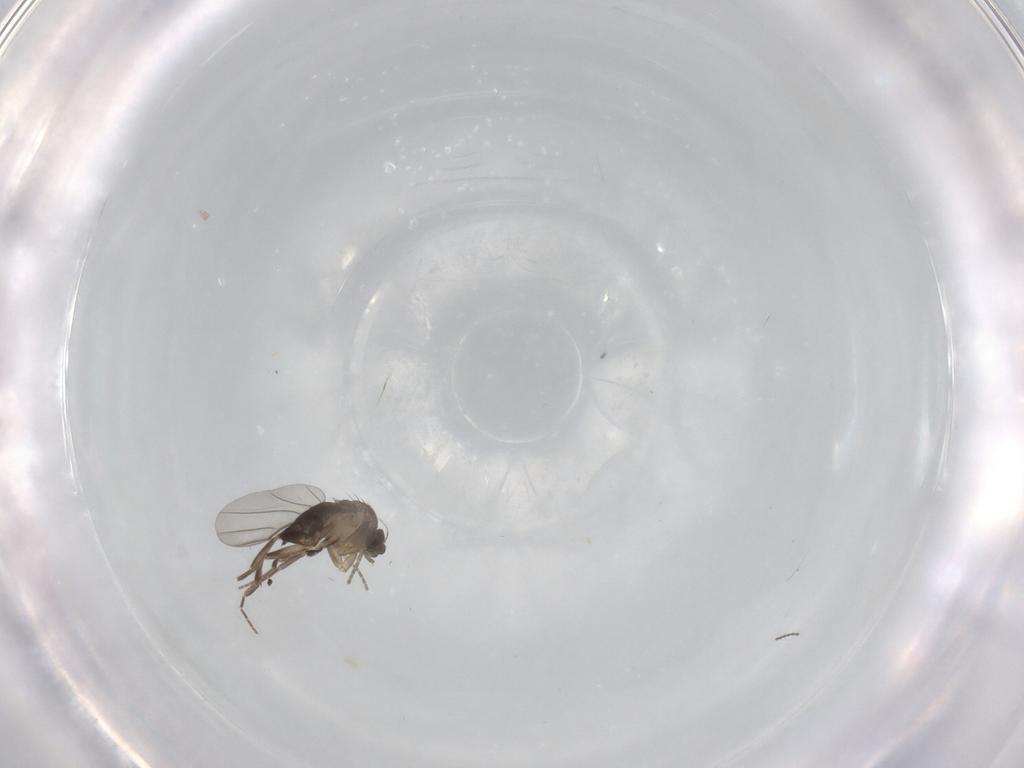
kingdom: Animalia
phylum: Arthropoda
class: Insecta
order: Diptera
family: Phoridae
